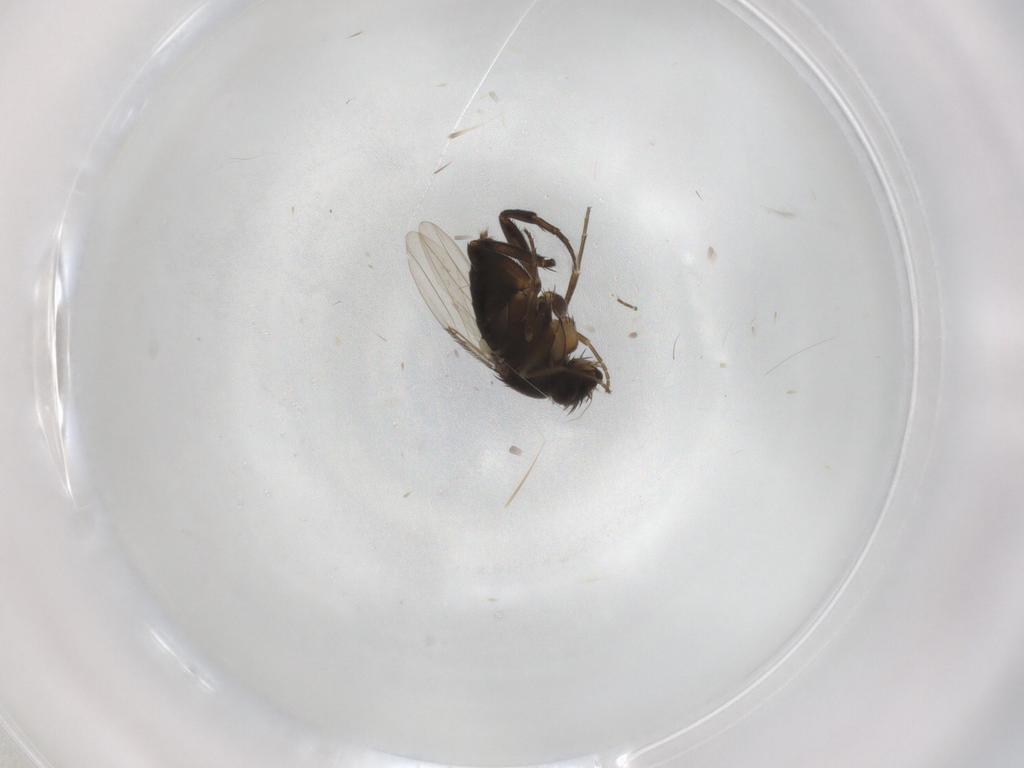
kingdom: Animalia
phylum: Arthropoda
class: Insecta
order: Diptera
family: Phoridae
